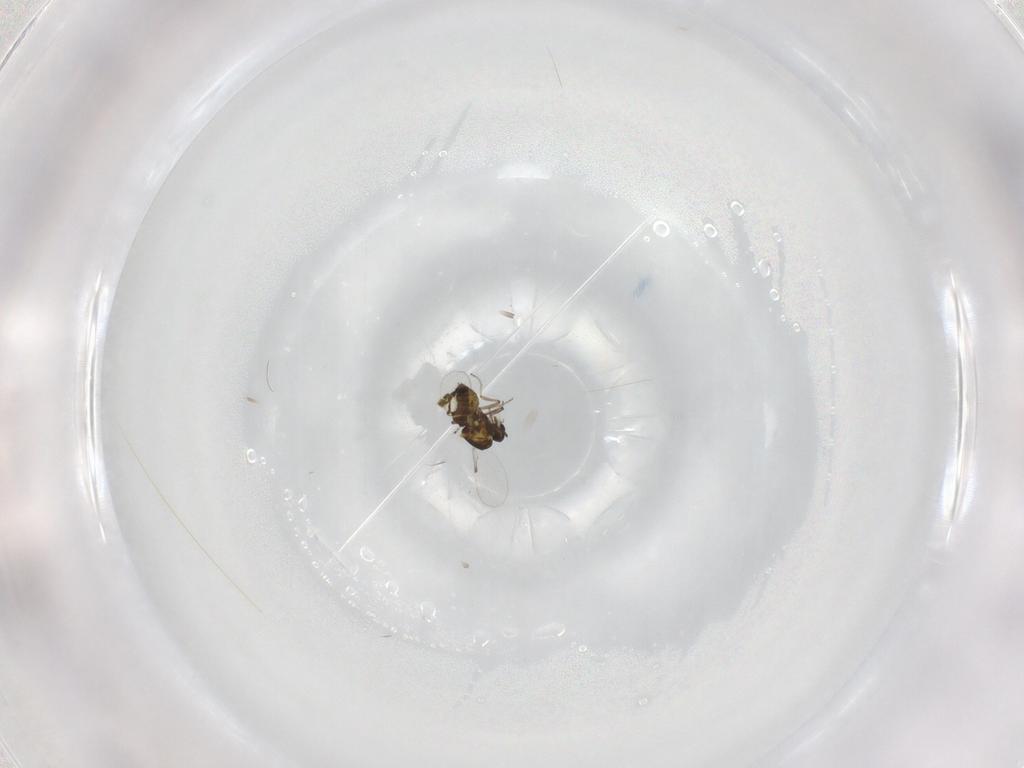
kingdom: Animalia
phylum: Arthropoda
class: Insecta
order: Diptera
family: Ceratopogonidae
